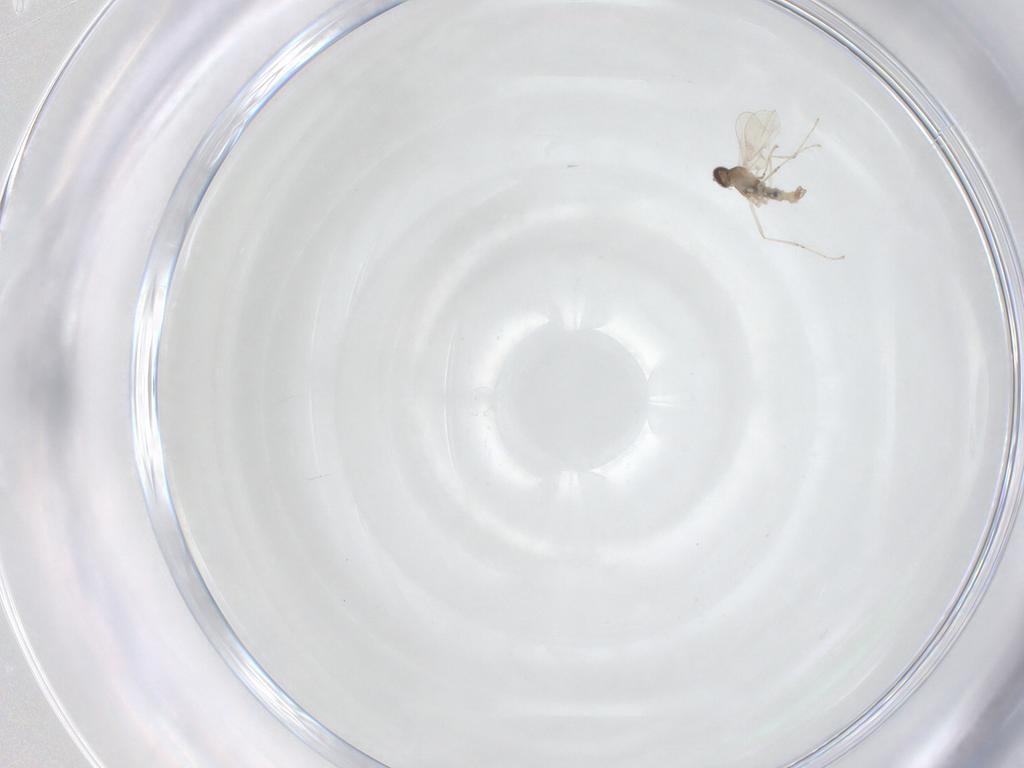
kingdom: Animalia
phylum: Arthropoda
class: Insecta
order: Diptera
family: Cecidomyiidae
